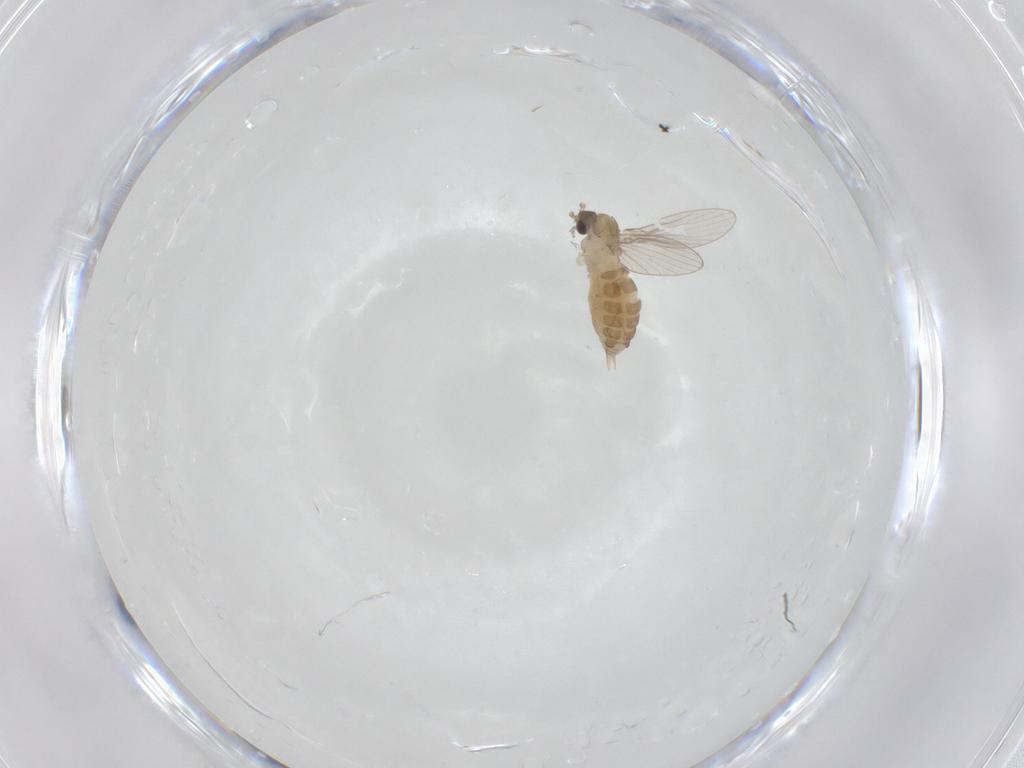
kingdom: Animalia
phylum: Arthropoda
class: Insecta
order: Diptera
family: Psychodidae
